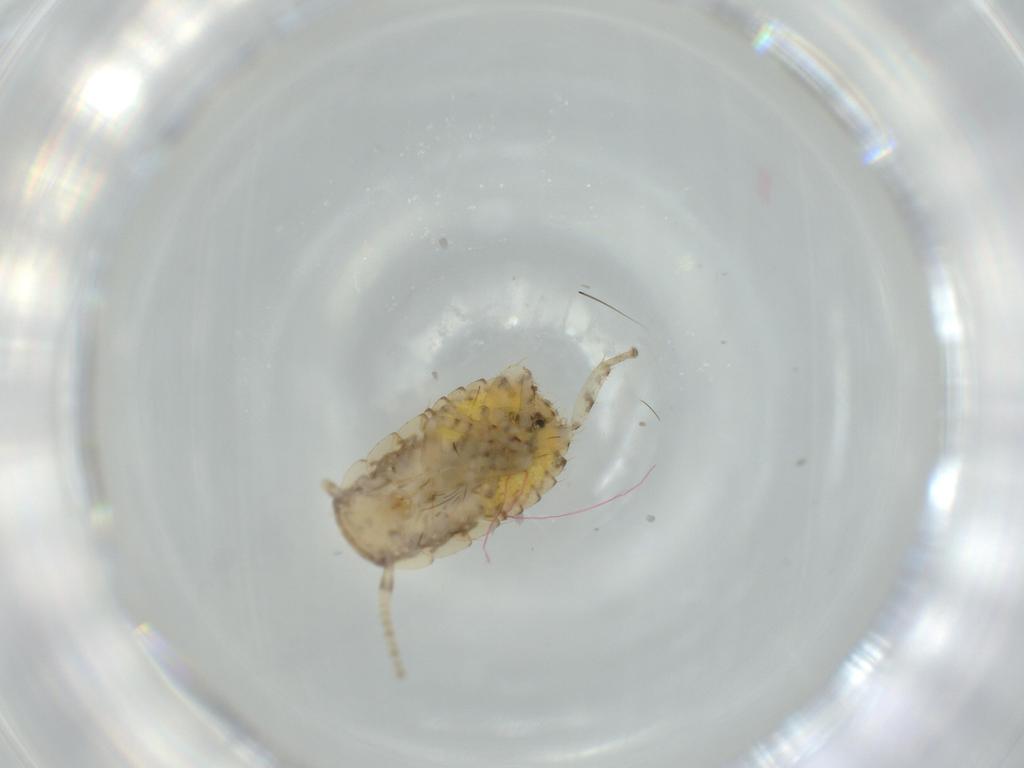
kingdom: Animalia
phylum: Arthropoda
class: Insecta
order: Blattodea
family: Ectobiidae
